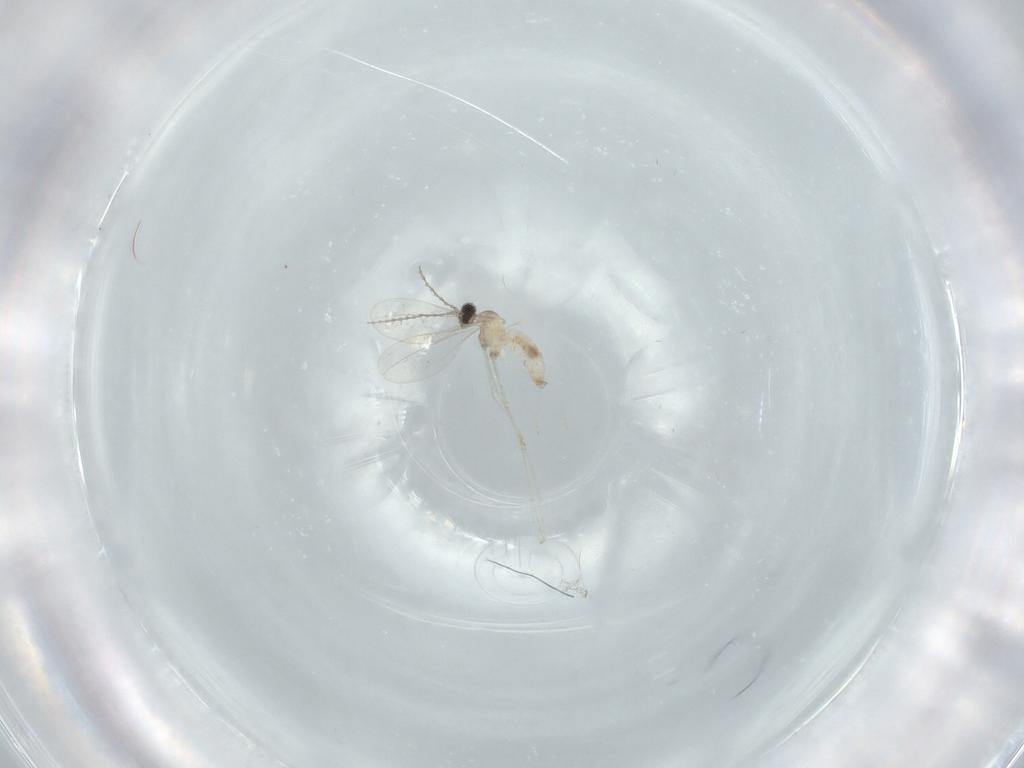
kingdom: Animalia
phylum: Arthropoda
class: Insecta
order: Diptera
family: Cecidomyiidae
